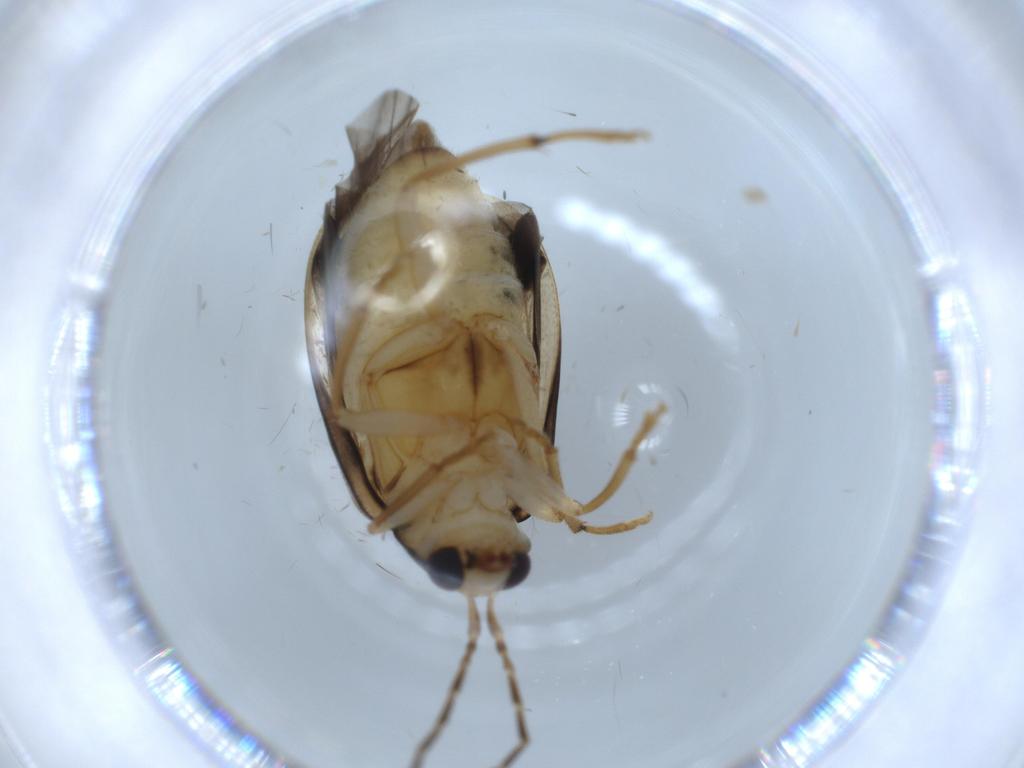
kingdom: Animalia
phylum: Arthropoda
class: Insecta
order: Coleoptera
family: Chrysomelidae
